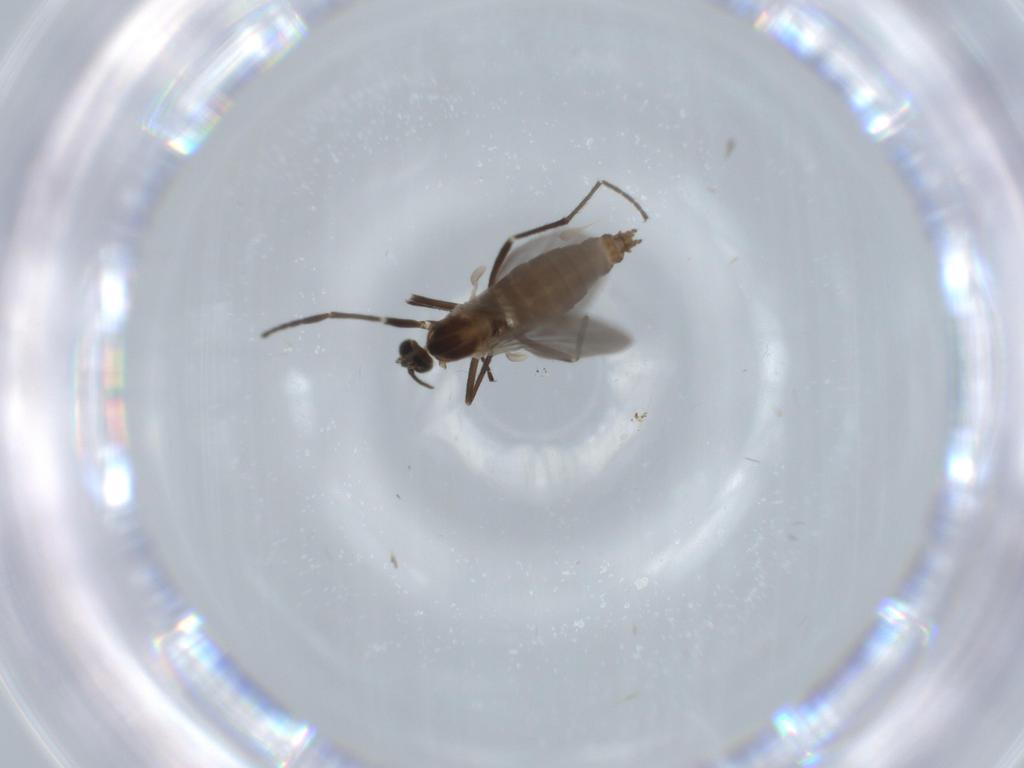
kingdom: Animalia
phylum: Arthropoda
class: Insecta
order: Diptera
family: Cecidomyiidae
